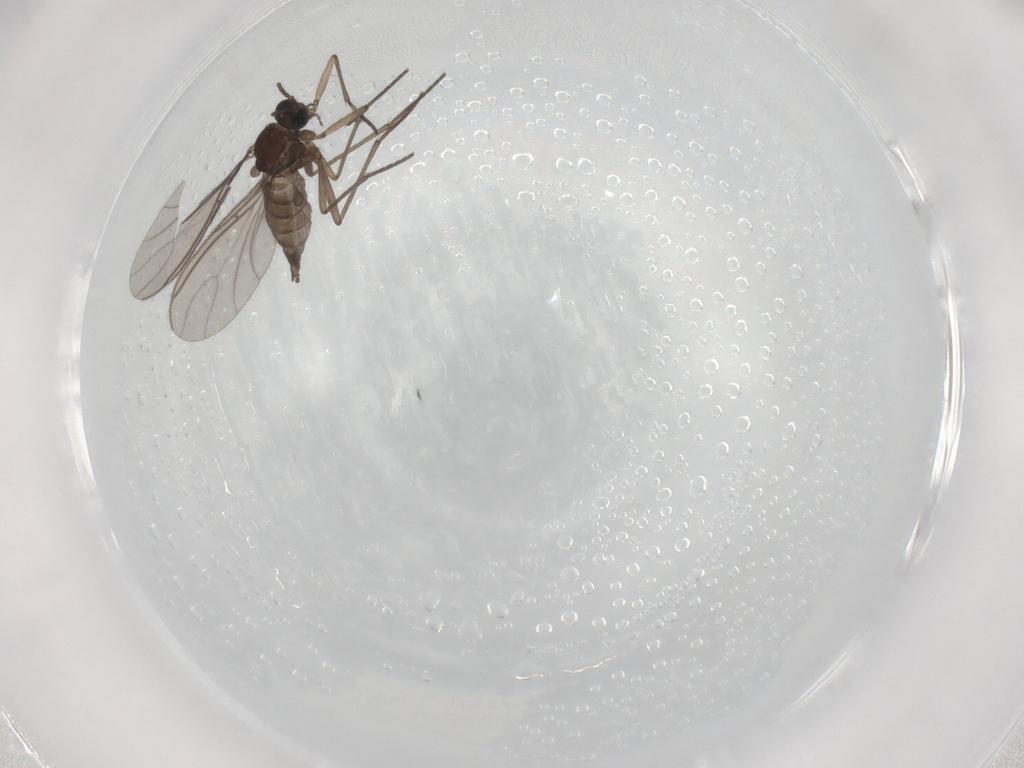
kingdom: Animalia
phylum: Arthropoda
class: Insecta
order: Diptera
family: Sciaridae
